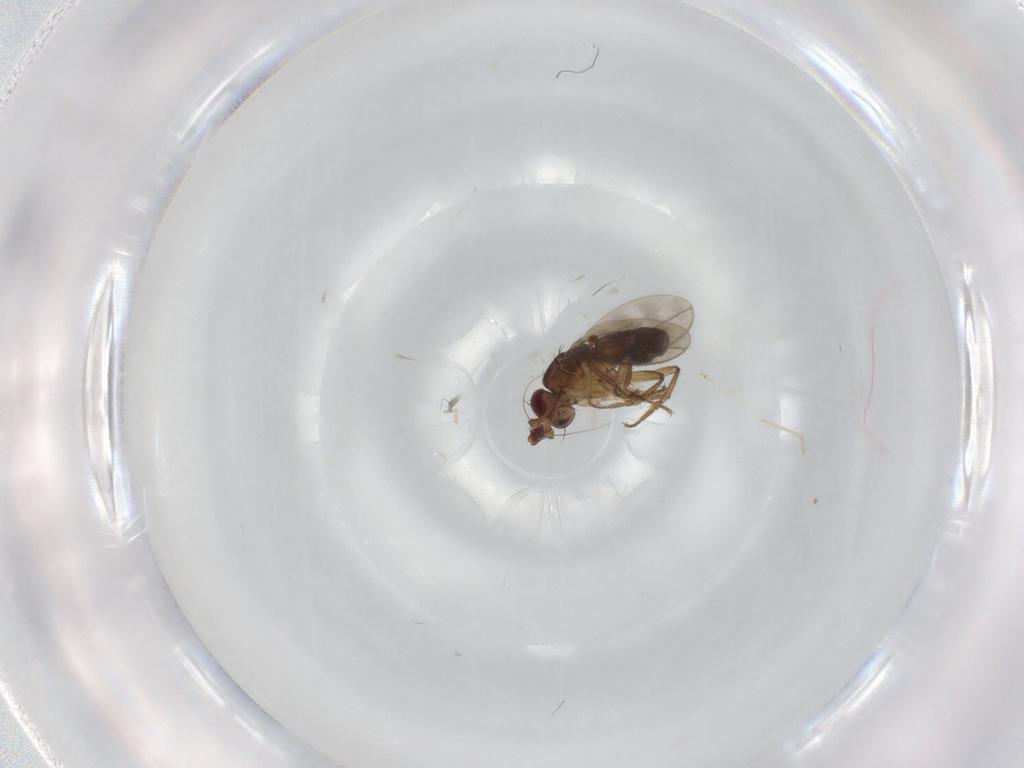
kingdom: Animalia
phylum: Arthropoda
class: Insecta
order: Diptera
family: Sphaeroceridae
